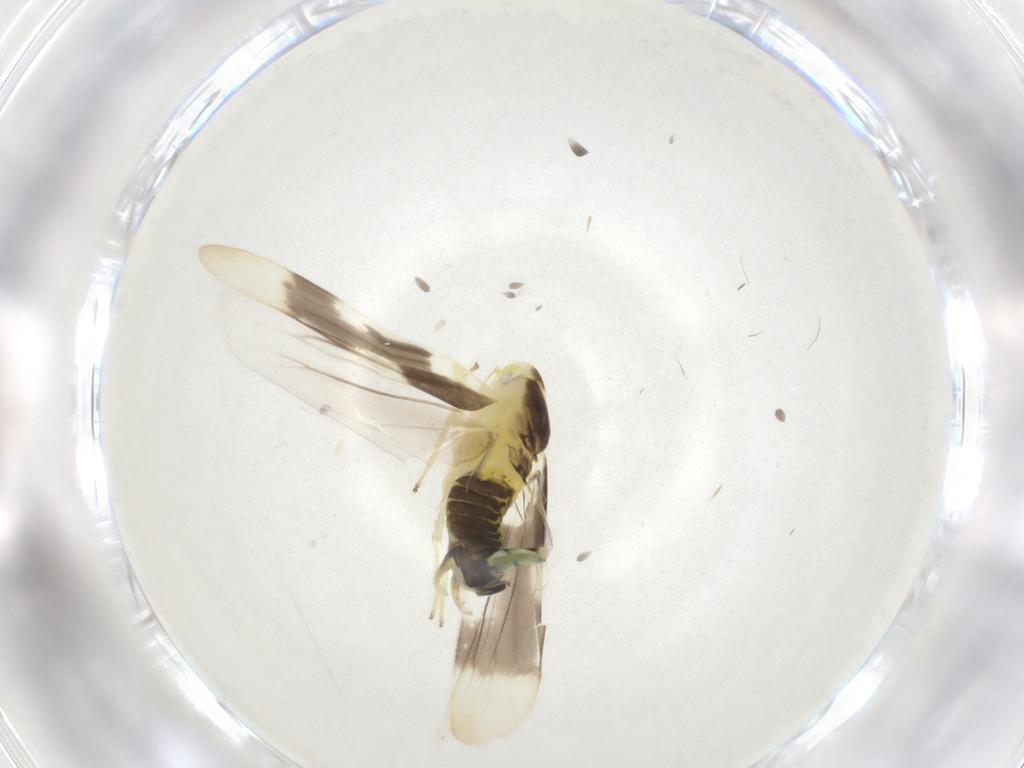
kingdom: Animalia
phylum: Arthropoda
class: Insecta
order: Hemiptera
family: Cicadellidae
